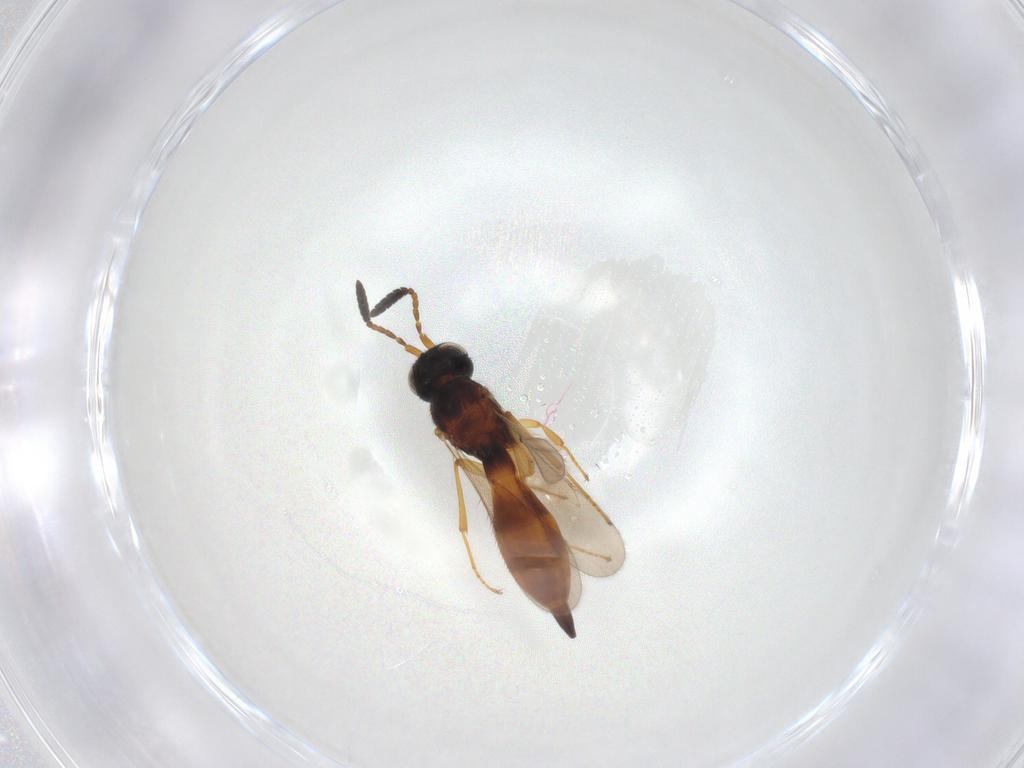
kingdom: Animalia
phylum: Arthropoda
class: Insecta
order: Hymenoptera
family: Scelionidae
